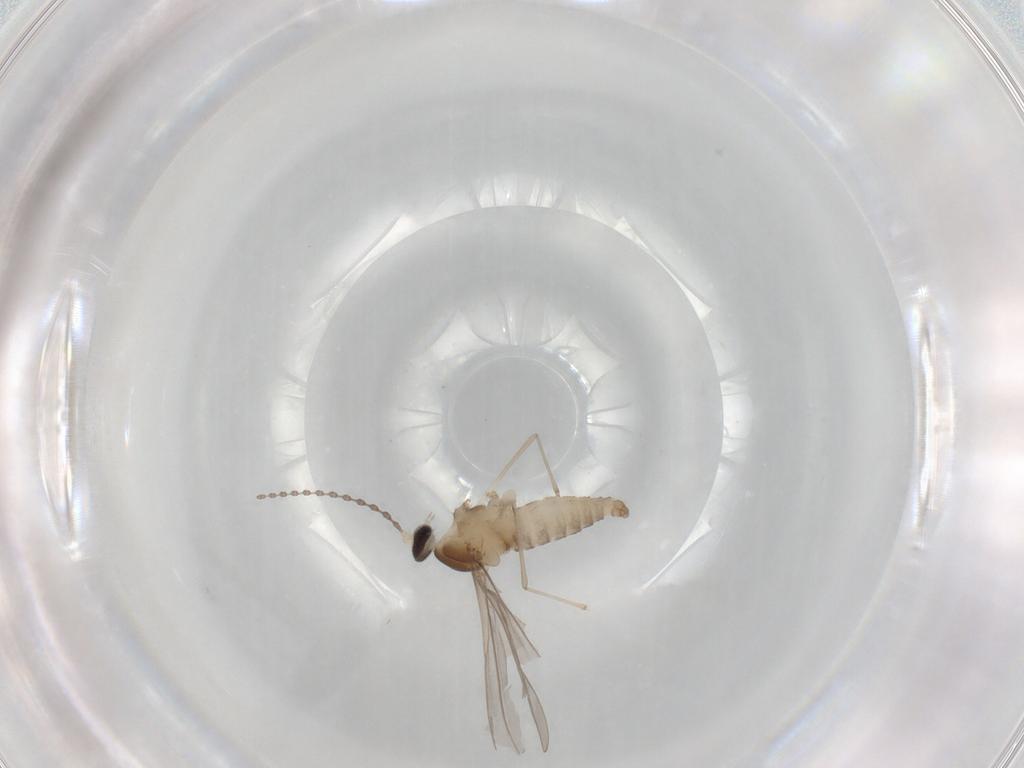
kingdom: Animalia
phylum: Arthropoda
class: Insecta
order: Diptera
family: Cecidomyiidae
